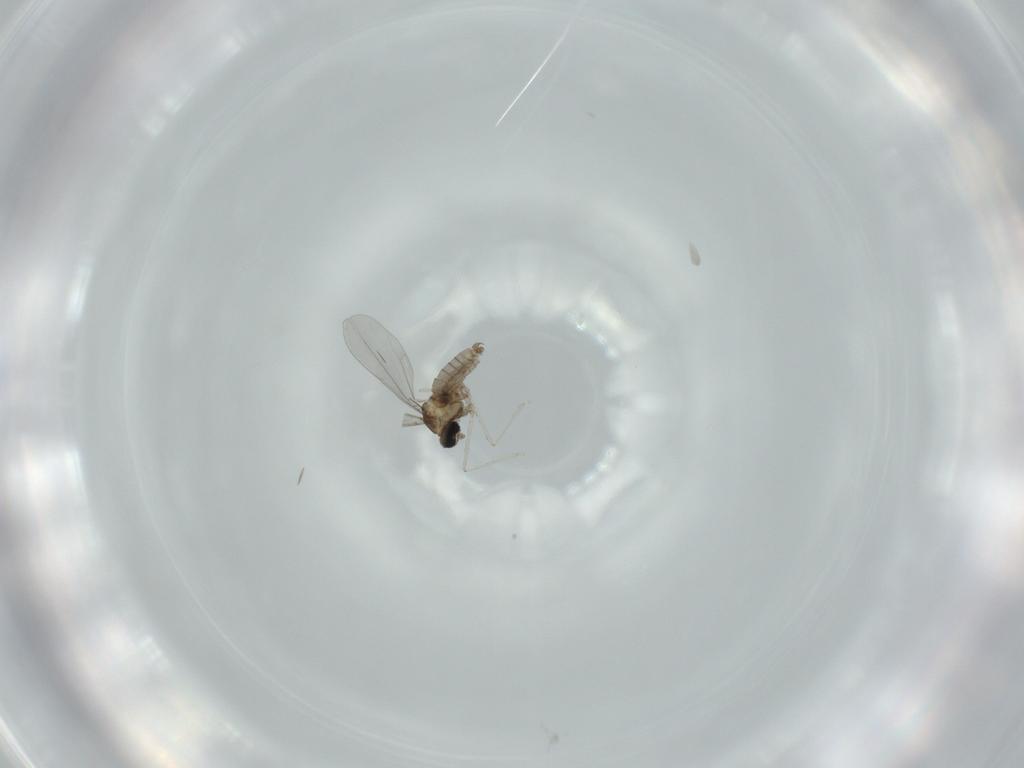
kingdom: Animalia
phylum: Arthropoda
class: Insecta
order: Diptera
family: Cecidomyiidae
